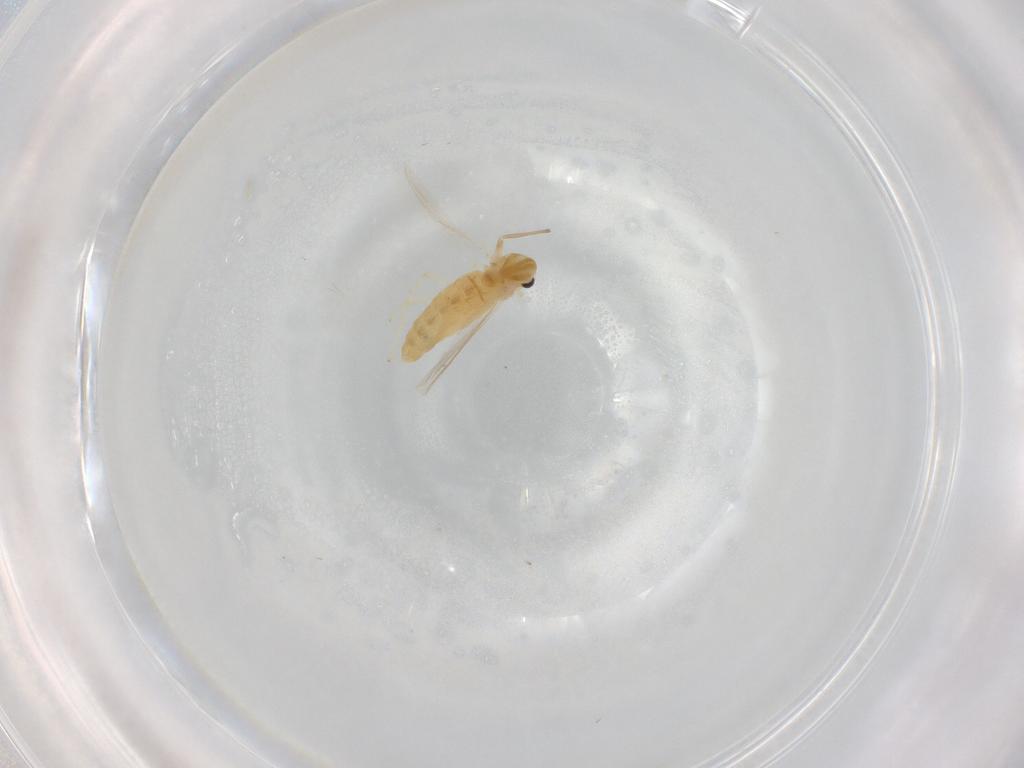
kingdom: Animalia
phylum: Arthropoda
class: Insecta
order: Diptera
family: Chironomidae
